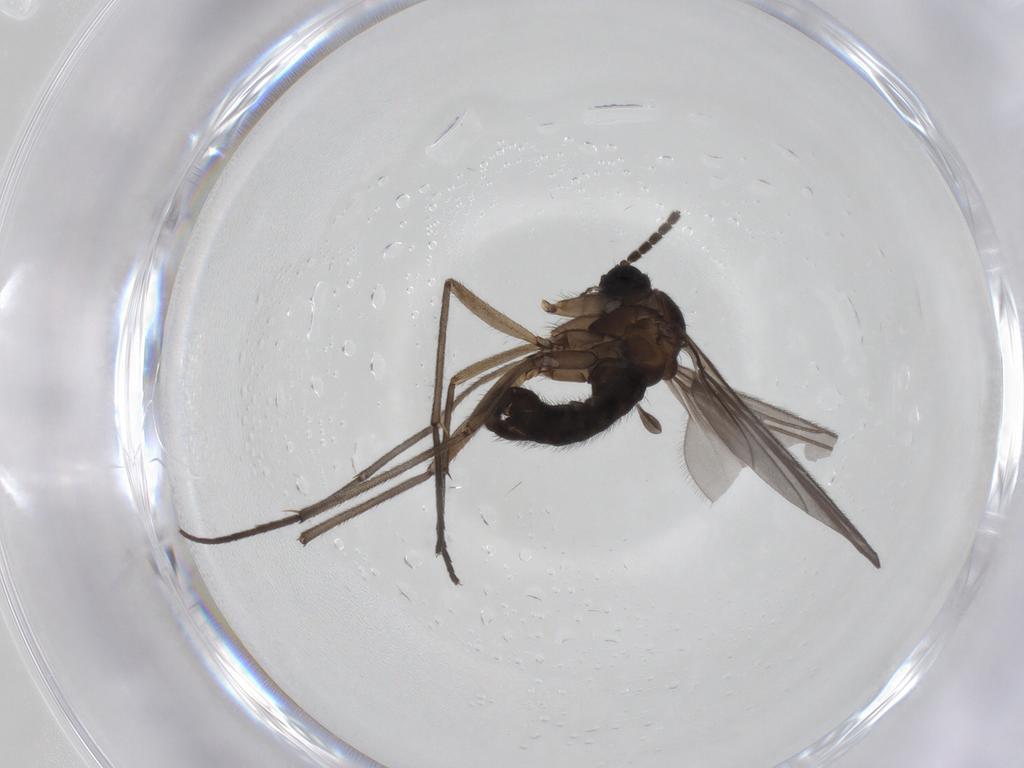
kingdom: Animalia
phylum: Arthropoda
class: Insecta
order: Diptera
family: Sciaridae
